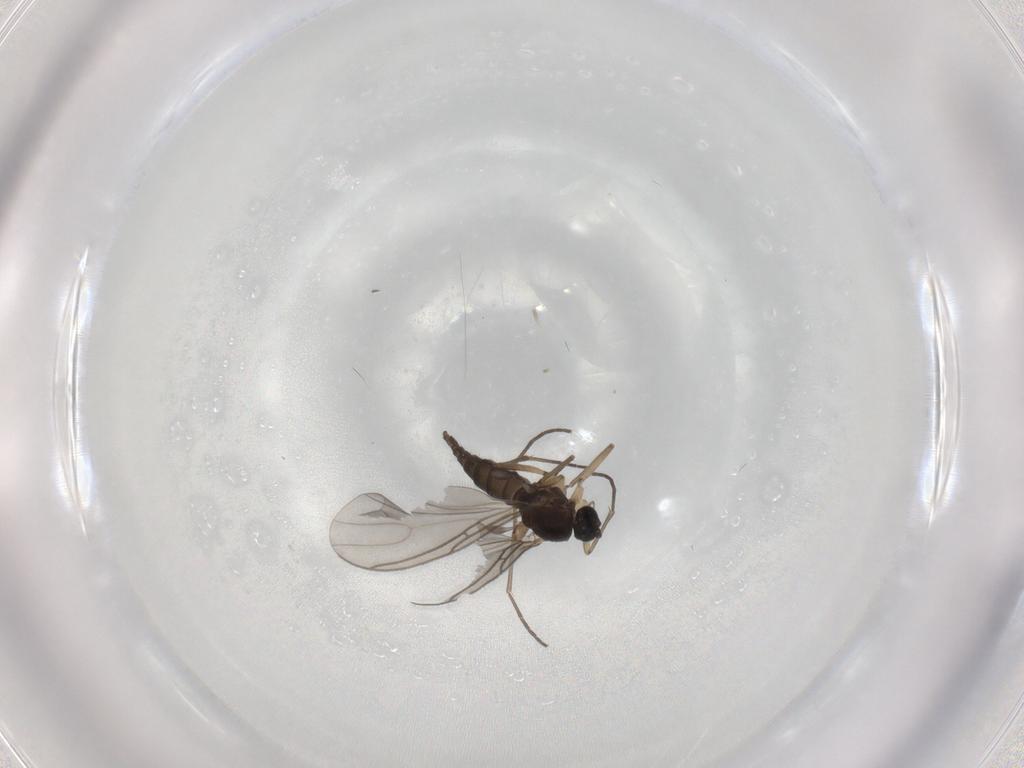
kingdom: Animalia
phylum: Arthropoda
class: Insecta
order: Diptera
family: Sciaridae
